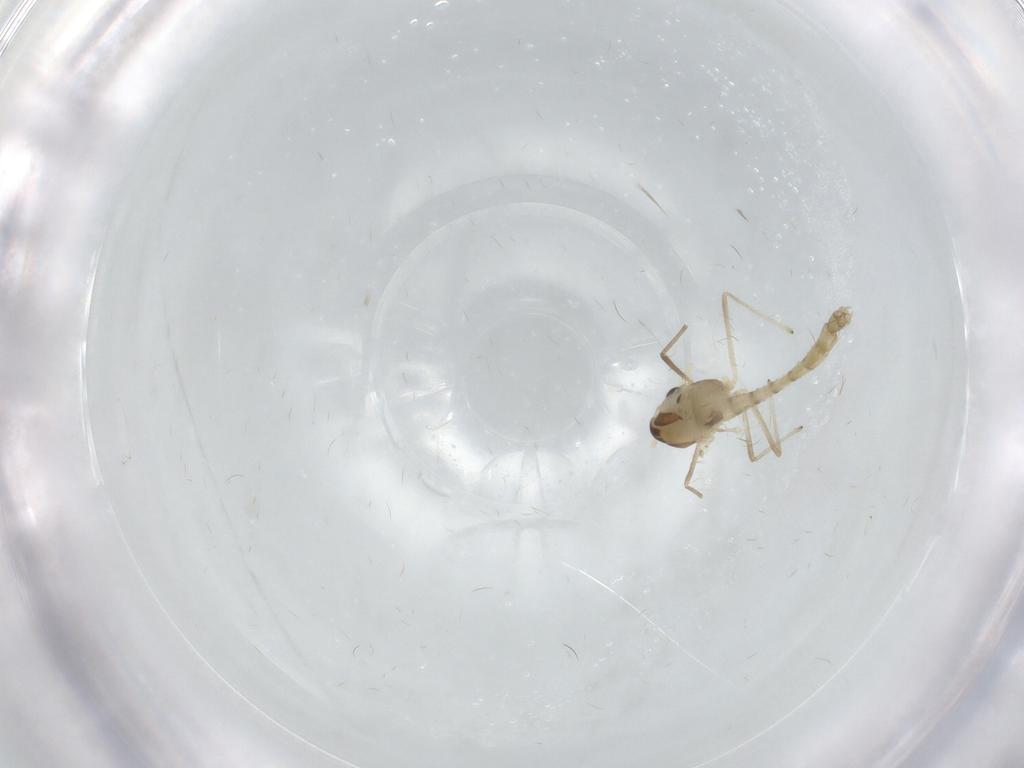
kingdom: Animalia
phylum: Arthropoda
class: Insecta
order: Diptera
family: Chironomidae
